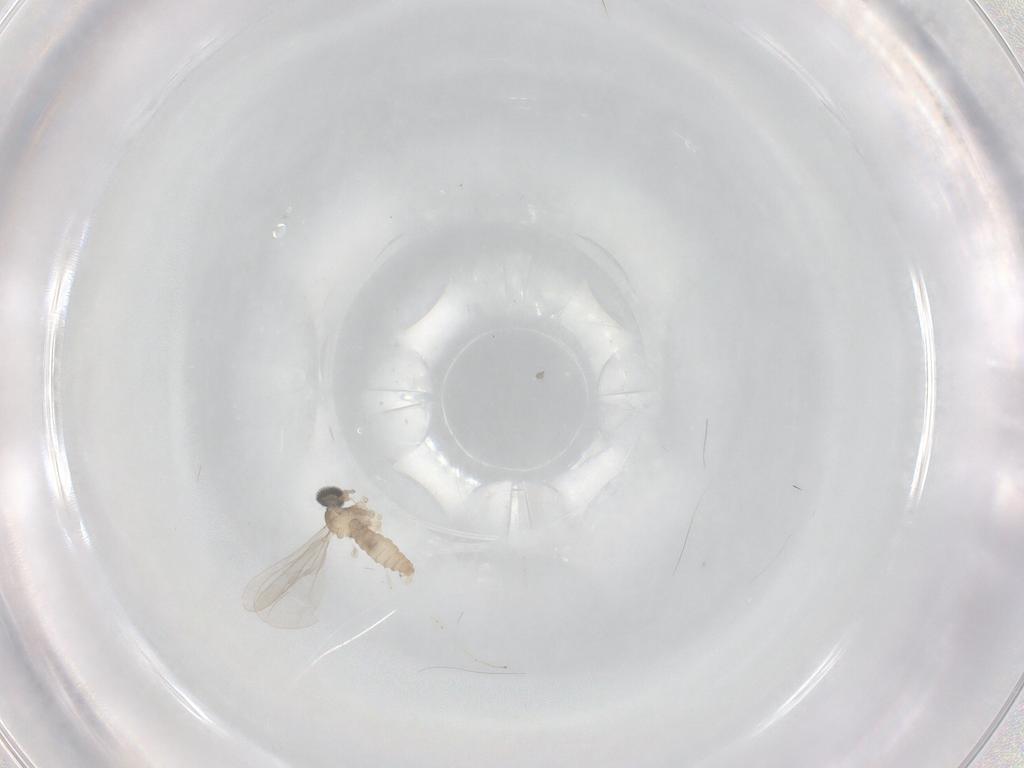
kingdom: Animalia
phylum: Arthropoda
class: Insecta
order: Diptera
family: Cecidomyiidae
